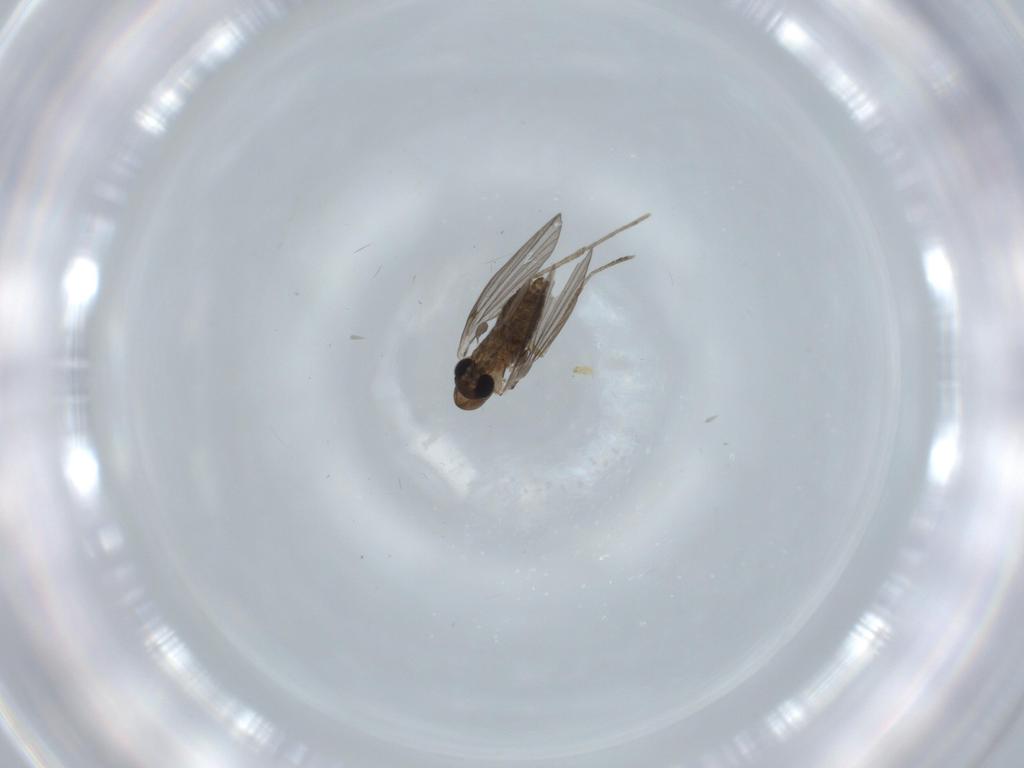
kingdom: Animalia
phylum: Arthropoda
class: Insecta
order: Diptera
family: Psychodidae
